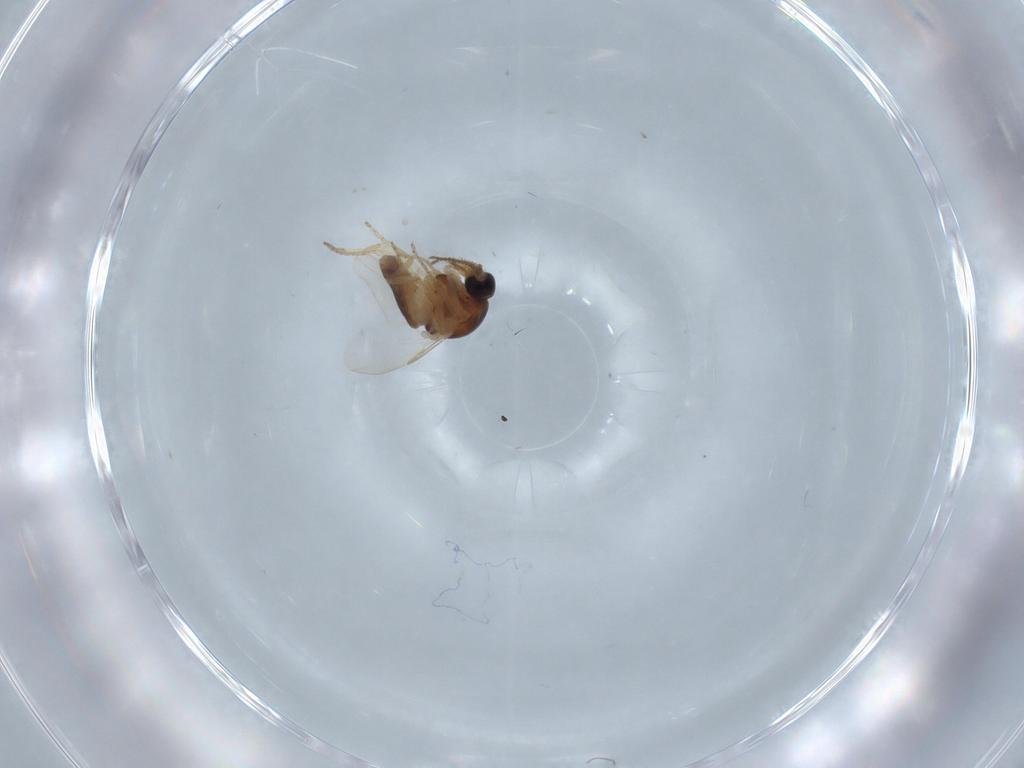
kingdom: Animalia
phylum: Arthropoda
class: Insecta
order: Diptera
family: Ceratopogonidae
